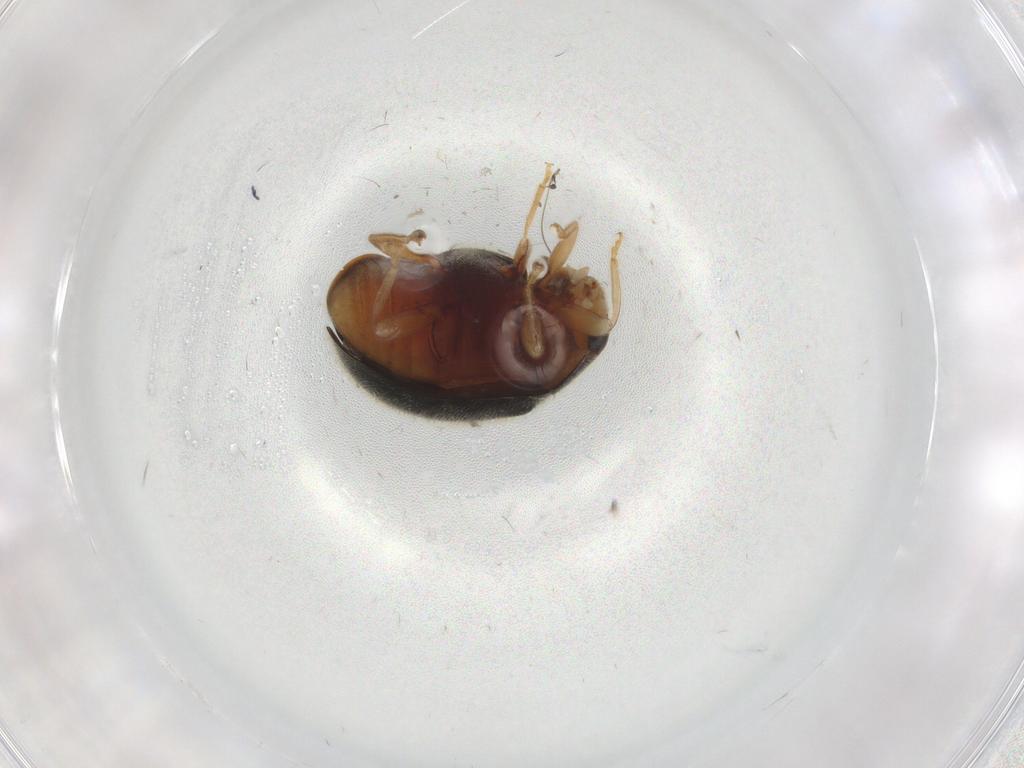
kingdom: Animalia
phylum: Arthropoda
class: Insecta
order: Coleoptera
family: Coccinellidae
